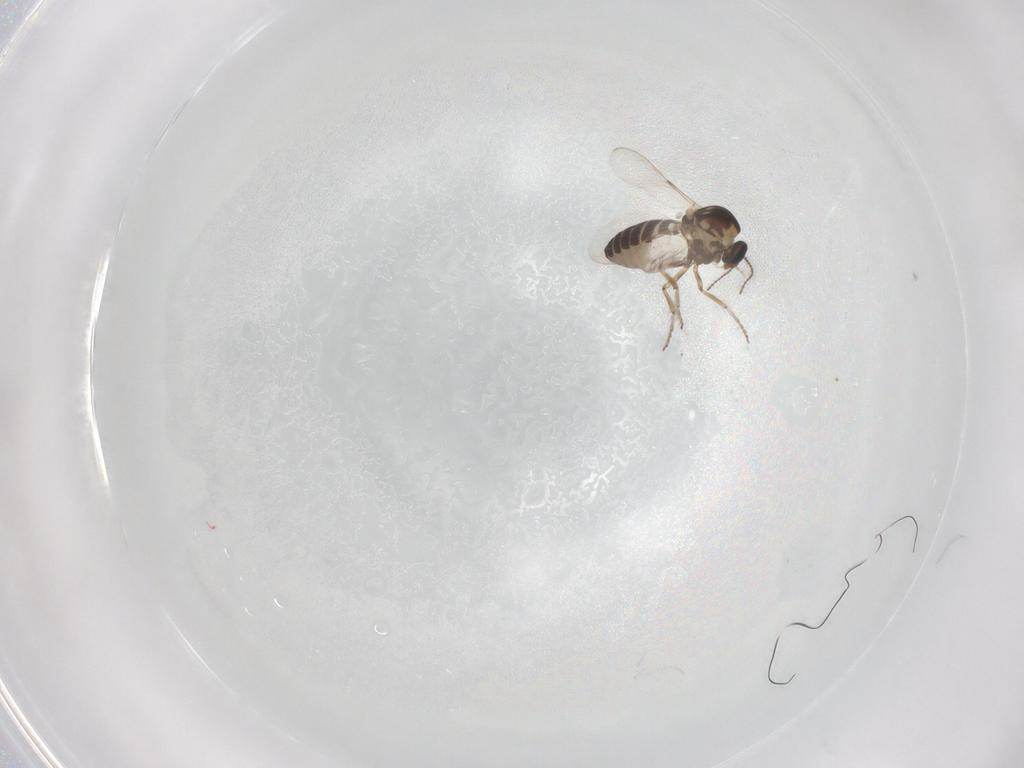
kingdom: Animalia
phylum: Arthropoda
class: Insecta
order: Diptera
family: Ceratopogonidae
